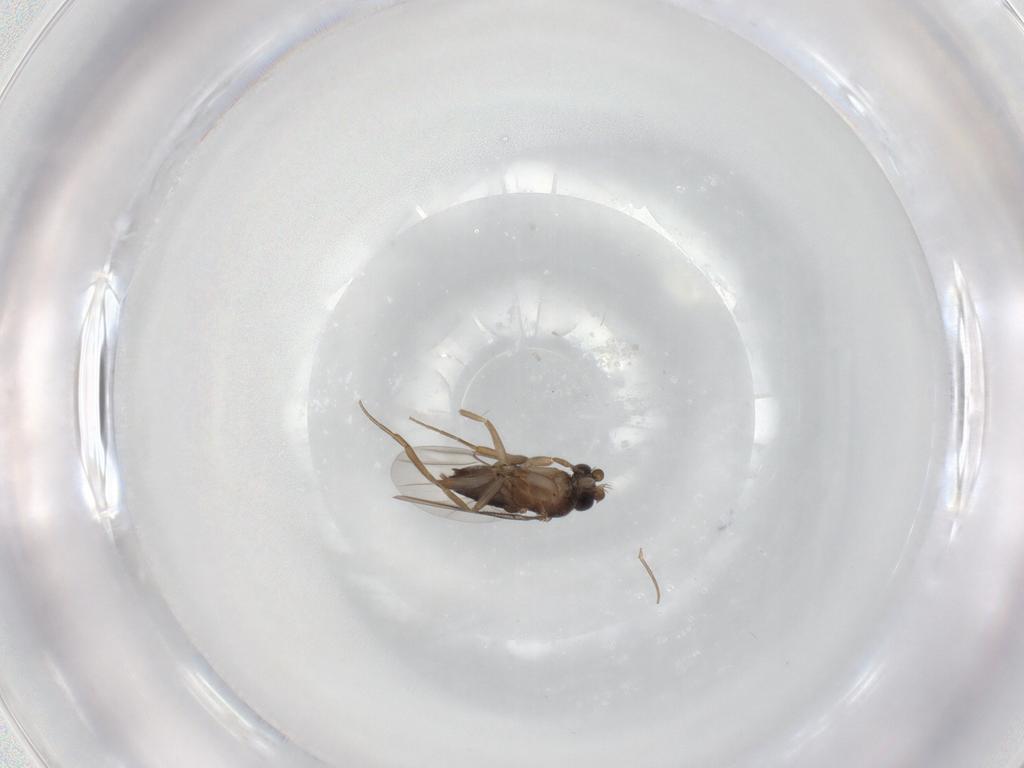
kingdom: Animalia
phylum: Arthropoda
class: Insecta
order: Diptera
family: Phoridae
